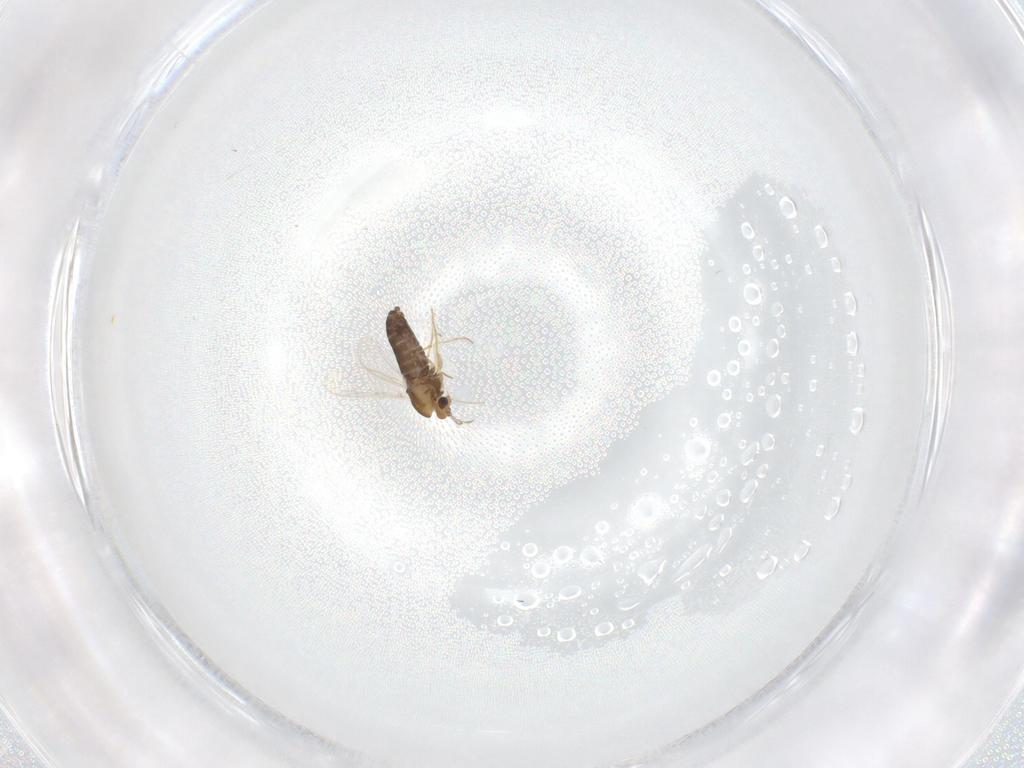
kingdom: Animalia
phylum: Arthropoda
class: Insecta
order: Diptera
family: Chironomidae
